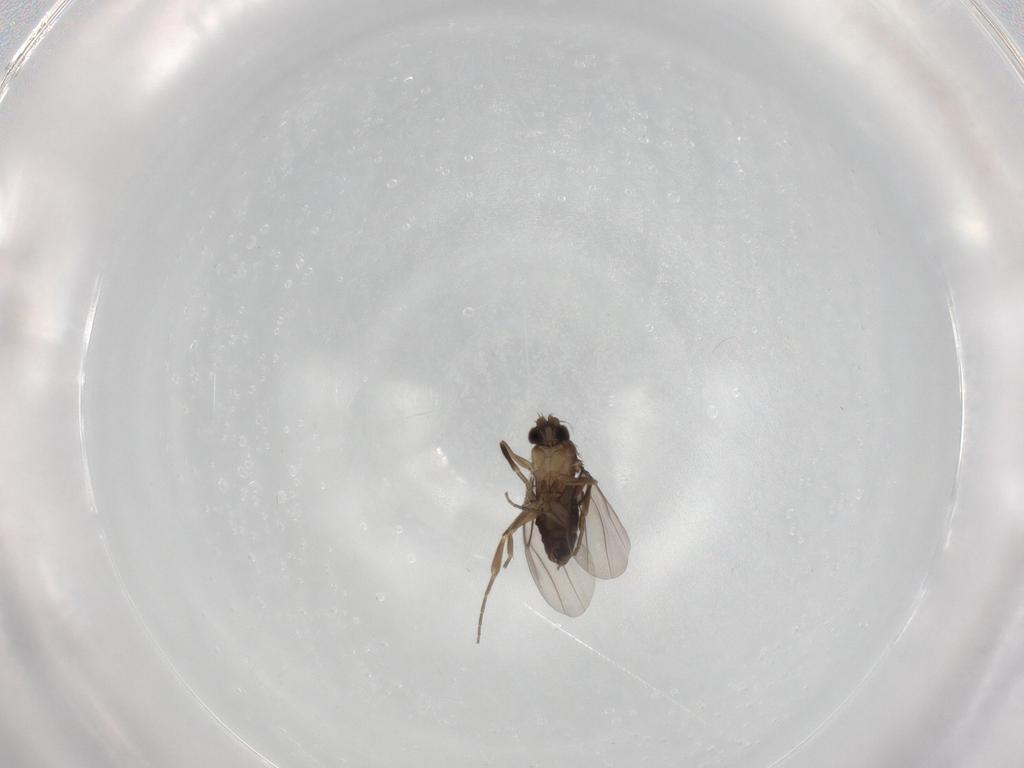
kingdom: Animalia
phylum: Arthropoda
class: Insecta
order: Diptera
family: Phoridae
